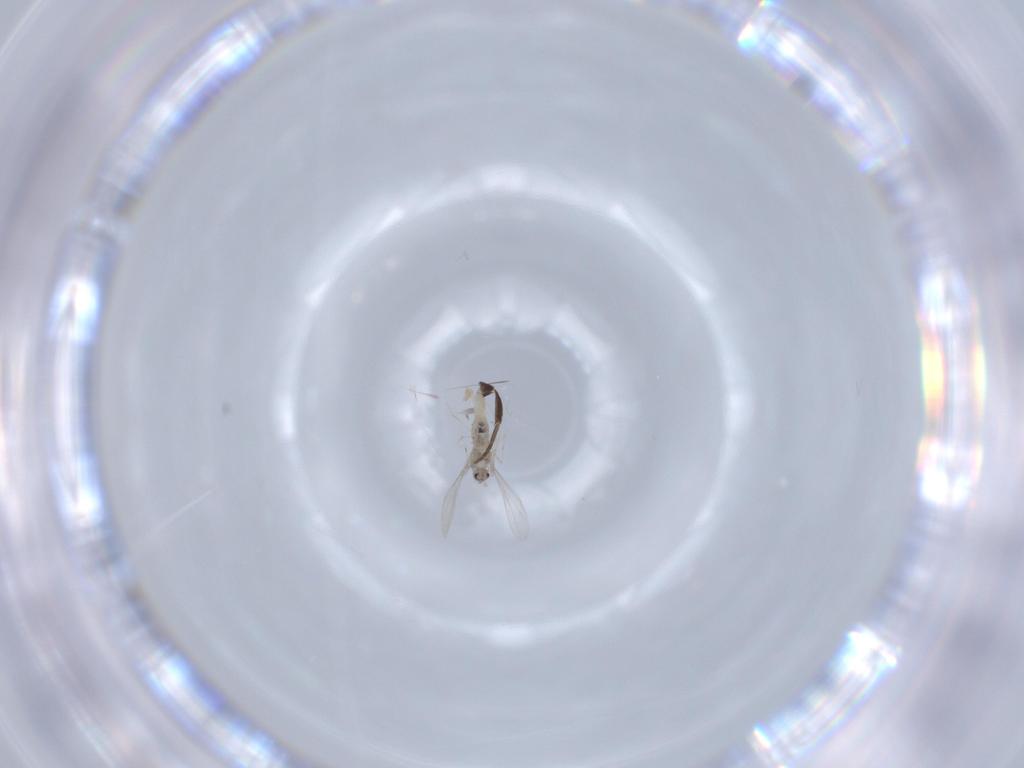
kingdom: Animalia
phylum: Arthropoda
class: Insecta
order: Diptera
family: Phoridae
